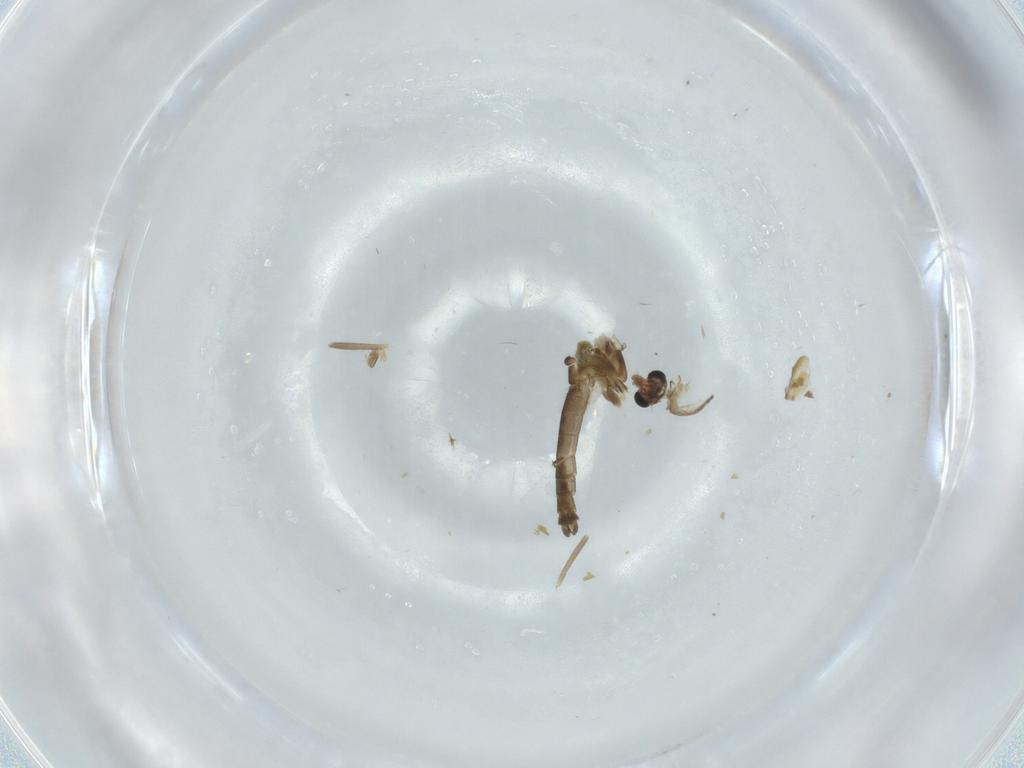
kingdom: Animalia
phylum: Arthropoda
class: Insecta
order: Diptera
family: Chironomidae
